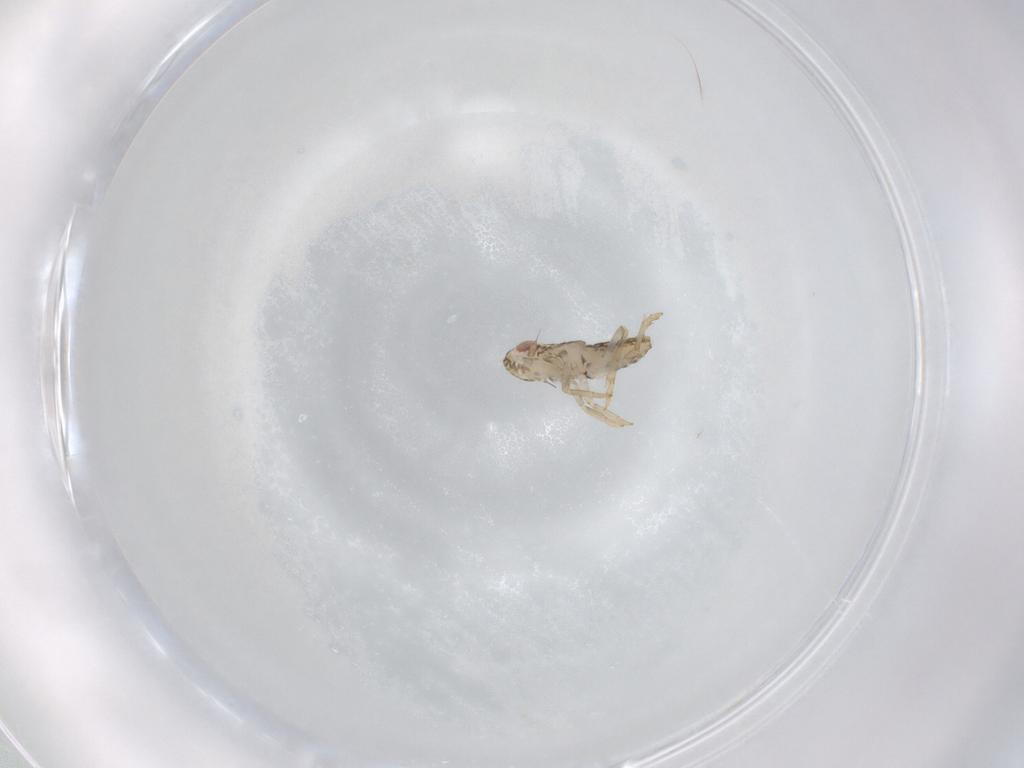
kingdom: Animalia
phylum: Arthropoda
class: Insecta
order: Hemiptera
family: Delphacidae
